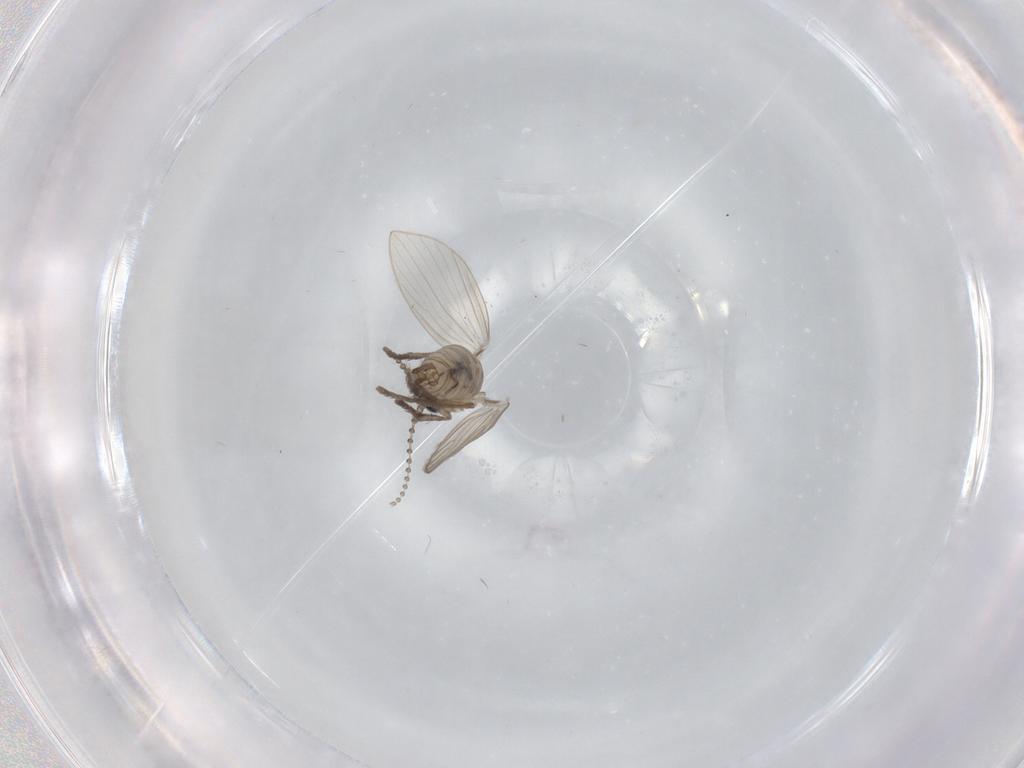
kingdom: Animalia
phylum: Arthropoda
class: Insecta
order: Diptera
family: Psychodidae
